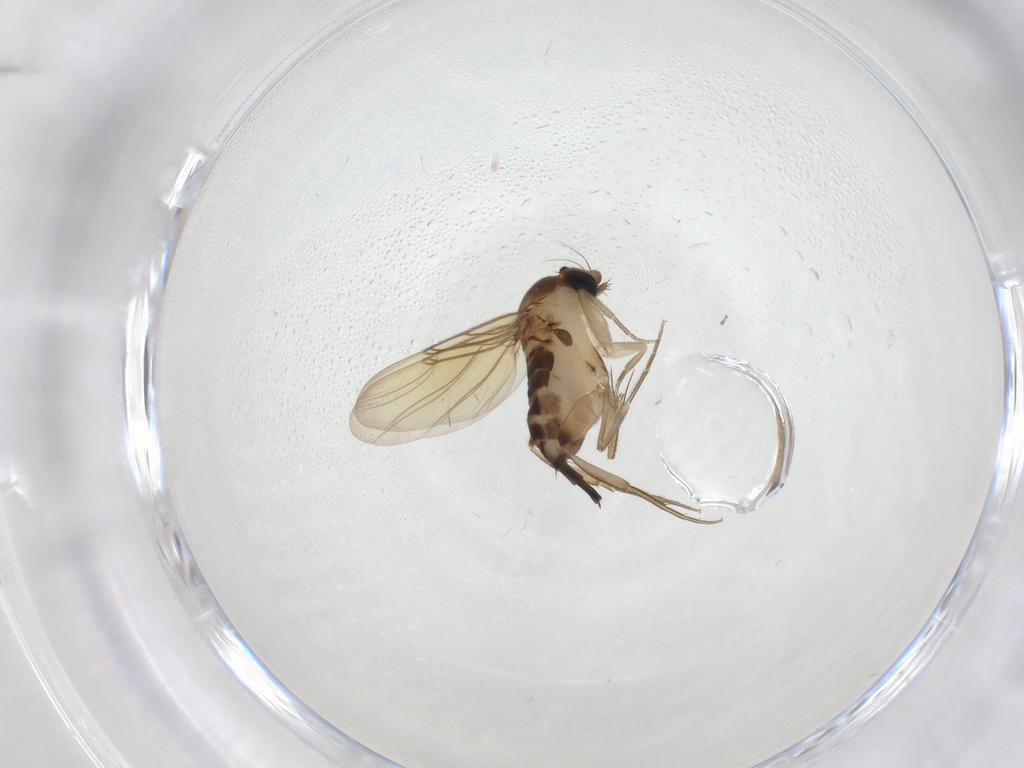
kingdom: Animalia
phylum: Arthropoda
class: Insecta
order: Diptera
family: Phoridae
